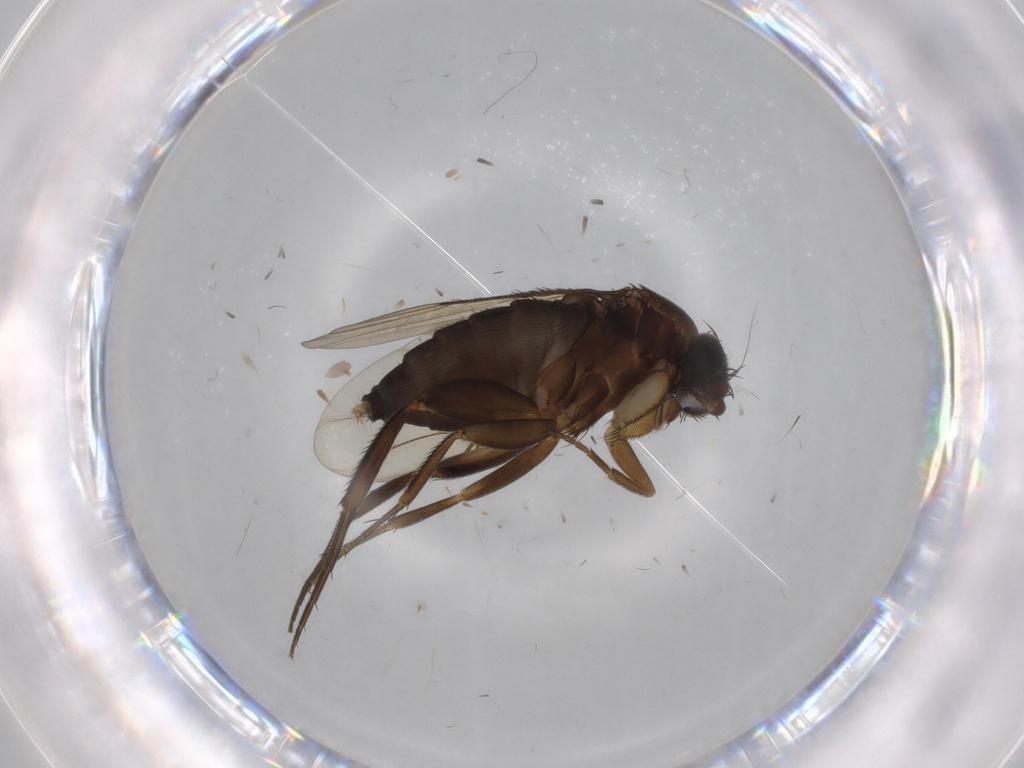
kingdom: Animalia
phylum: Arthropoda
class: Insecta
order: Diptera
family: Phoridae
